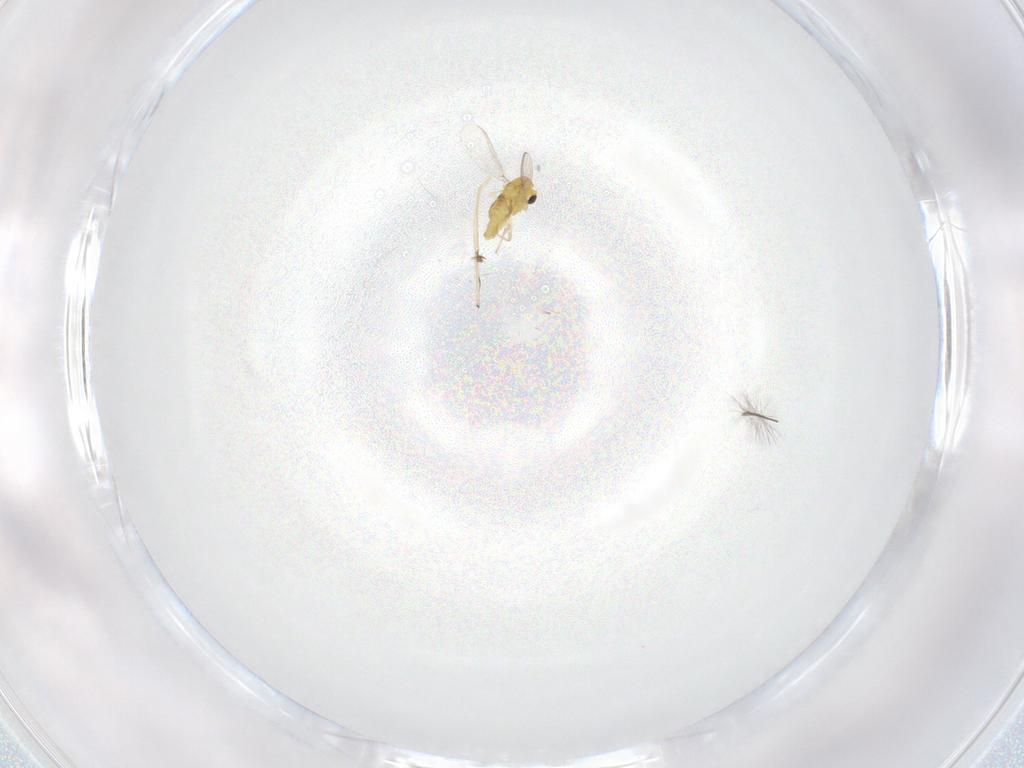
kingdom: Animalia
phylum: Arthropoda
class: Insecta
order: Diptera
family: Chironomidae
